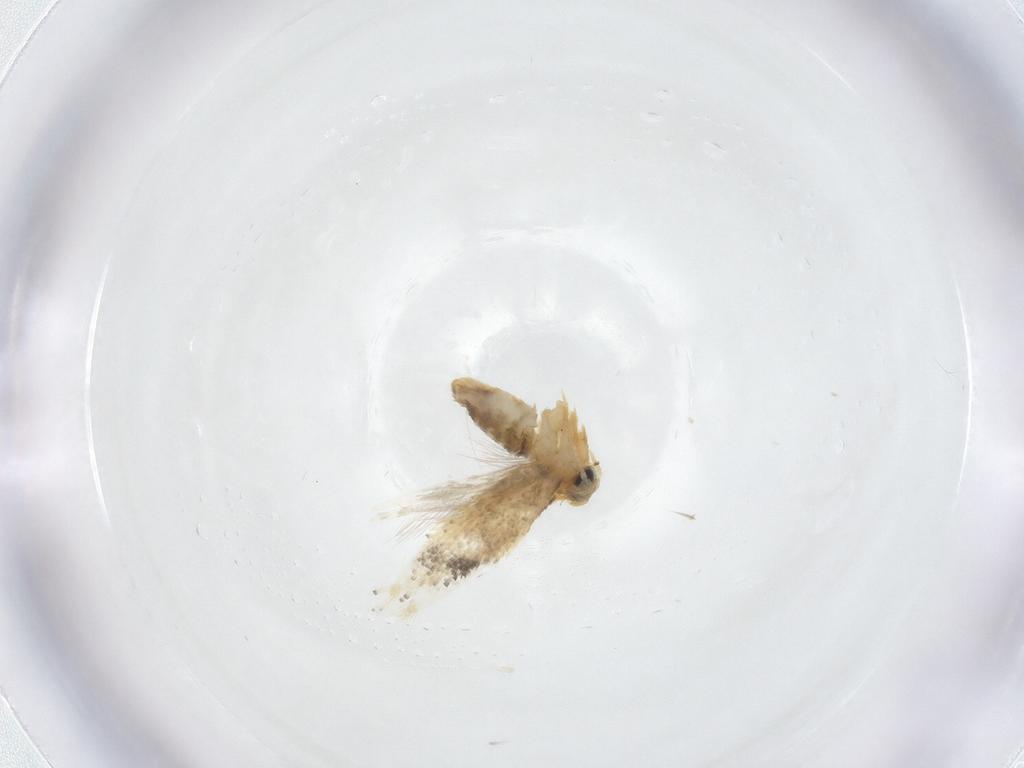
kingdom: Animalia
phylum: Arthropoda
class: Insecta
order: Lepidoptera
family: Nepticulidae
